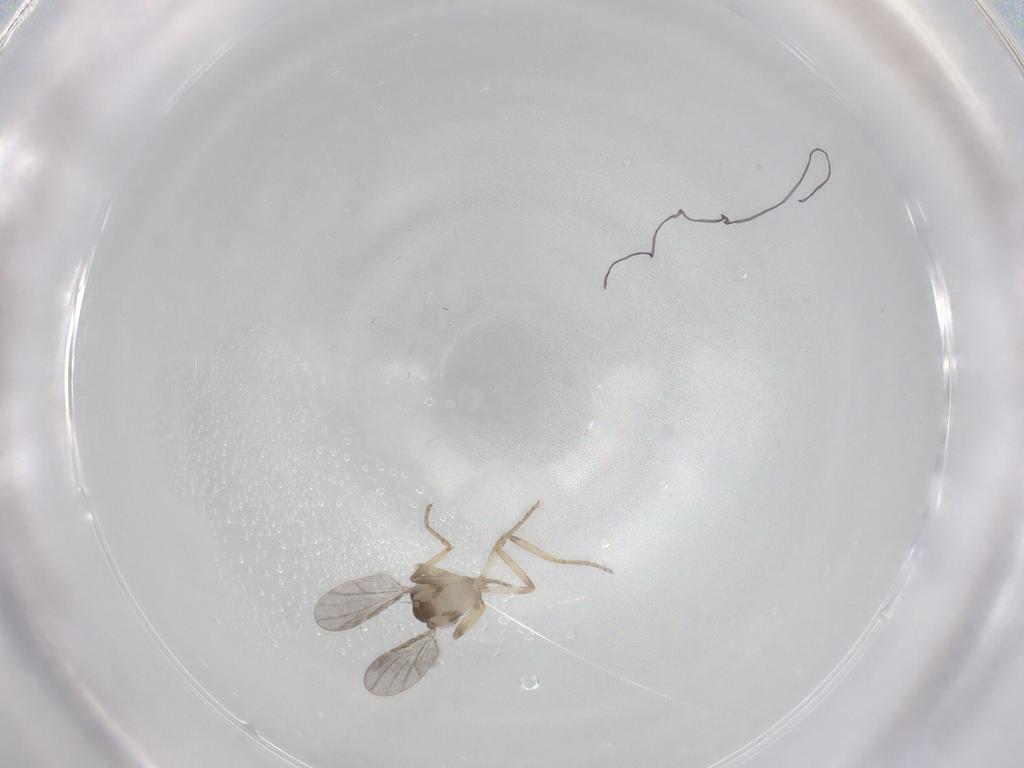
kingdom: Animalia
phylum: Arthropoda
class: Insecta
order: Diptera
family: Ceratopogonidae
